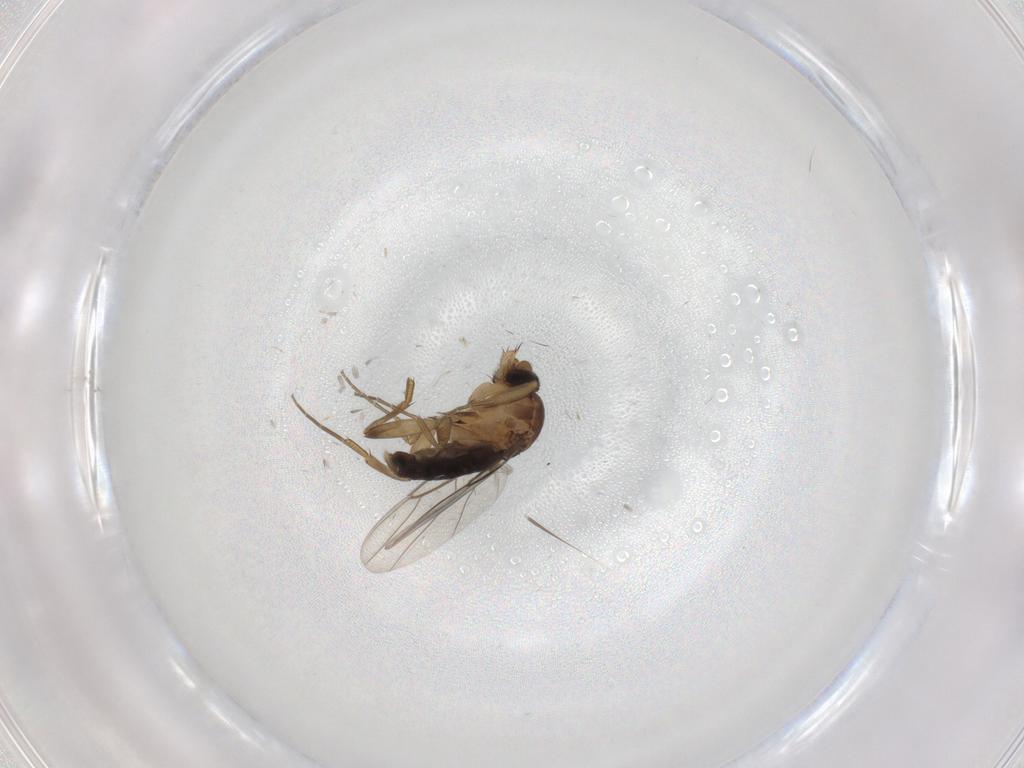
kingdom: Animalia
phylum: Arthropoda
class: Insecta
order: Diptera
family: Phoridae
